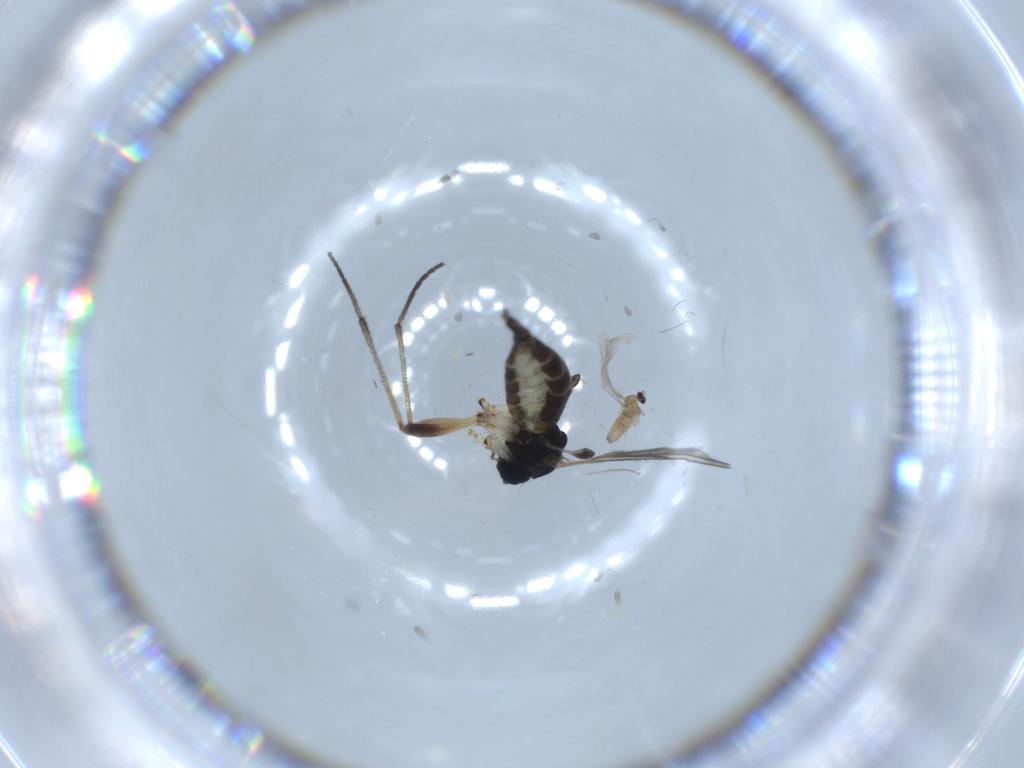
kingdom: Animalia
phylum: Arthropoda
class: Insecta
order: Diptera
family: Sciaridae
